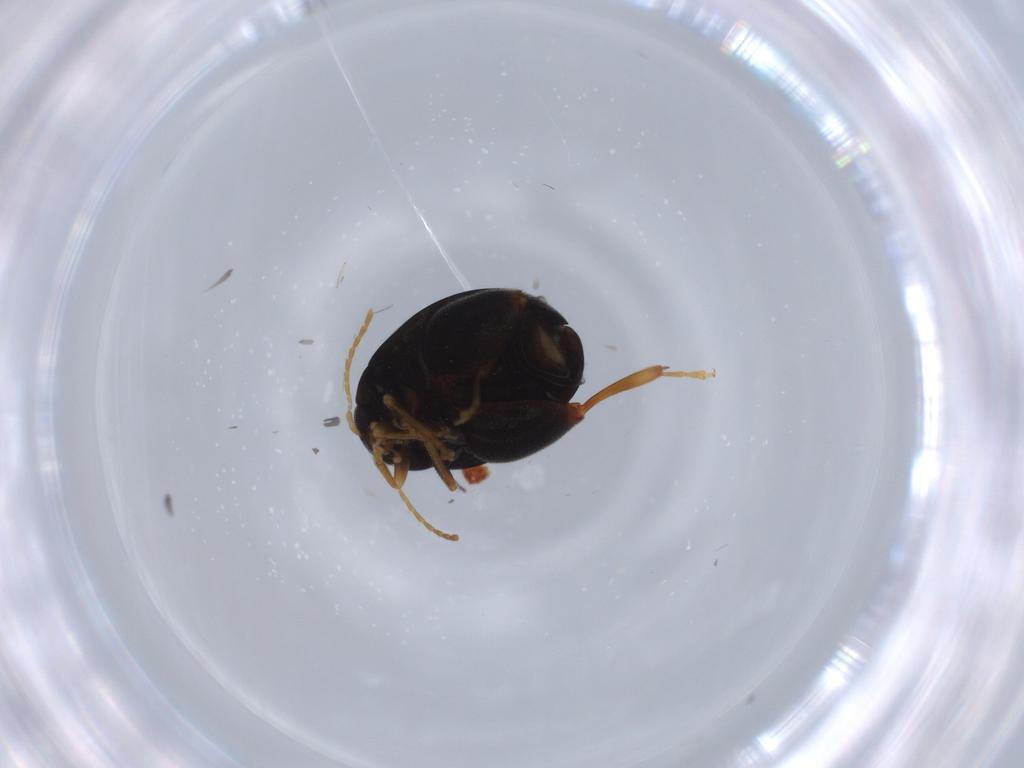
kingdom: Animalia
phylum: Arthropoda
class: Insecta
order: Coleoptera
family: Chrysomelidae
